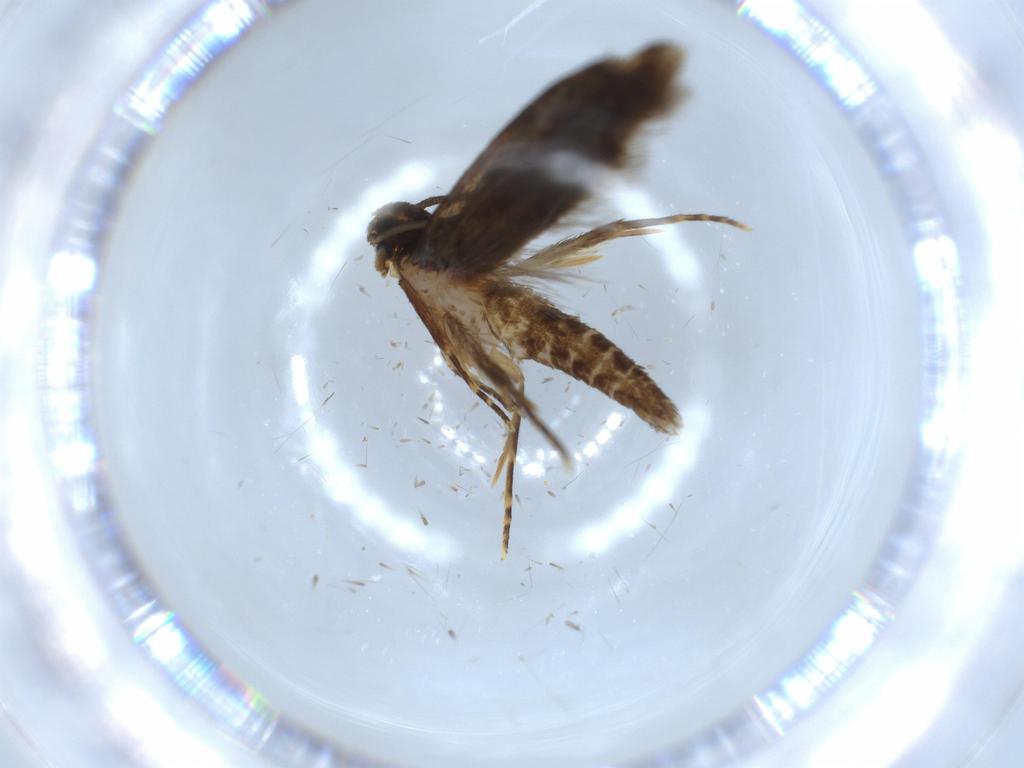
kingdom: Animalia
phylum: Arthropoda
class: Insecta
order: Lepidoptera
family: Tineidae
